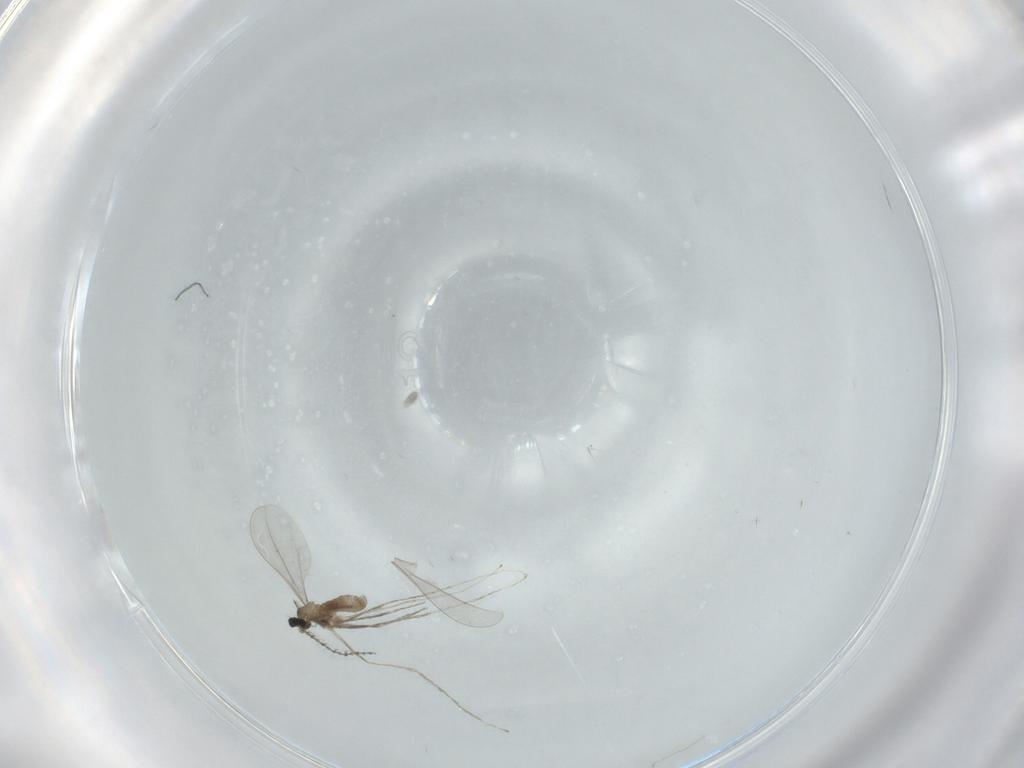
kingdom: Animalia
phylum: Arthropoda
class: Insecta
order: Diptera
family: Cecidomyiidae
